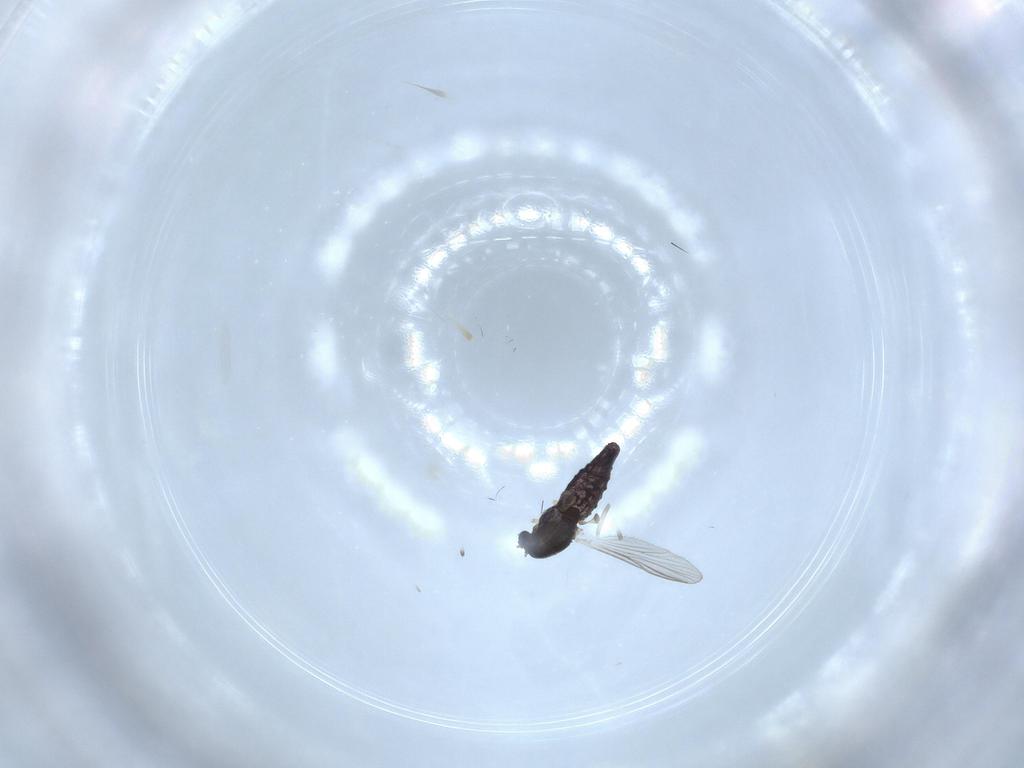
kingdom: Animalia
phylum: Arthropoda
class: Insecta
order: Diptera
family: Chironomidae
